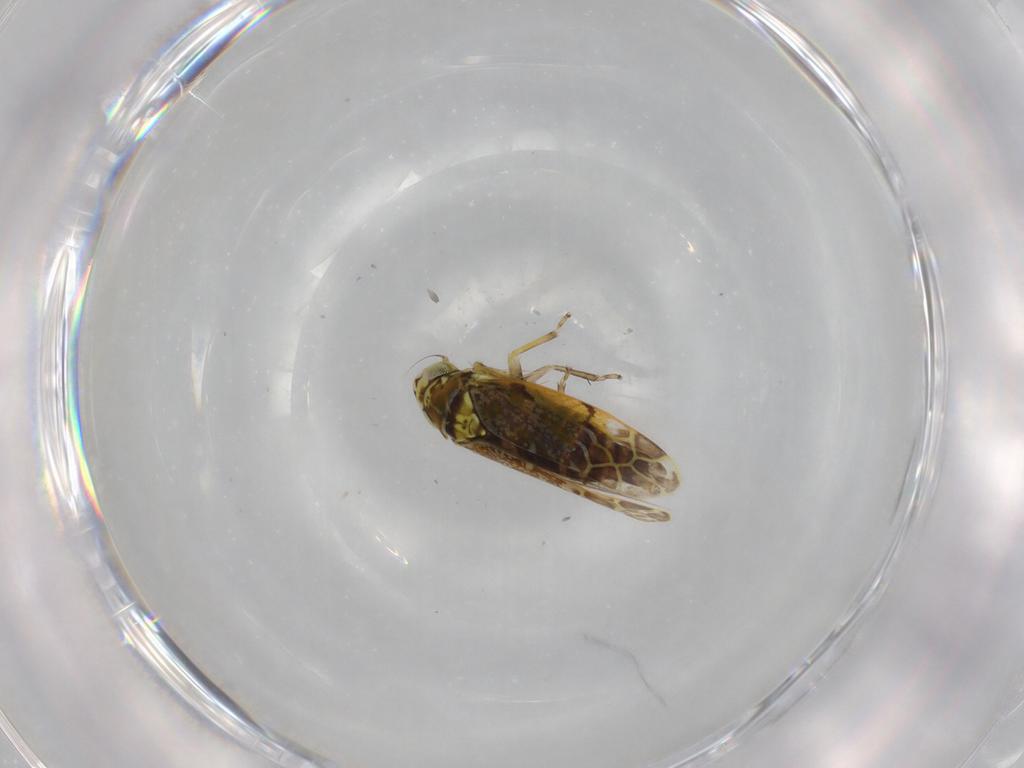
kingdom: Animalia
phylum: Arthropoda
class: Insecta
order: Hemiptera
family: Cicadellidae
